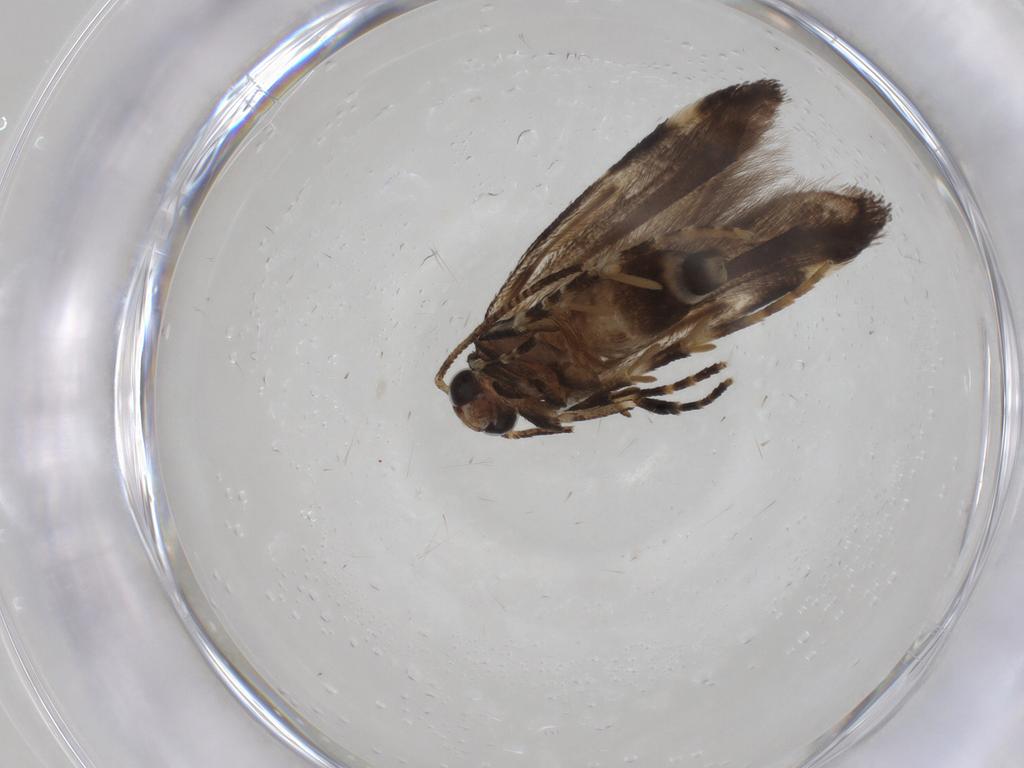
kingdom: Animalia
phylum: Arthropoda
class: Insecta
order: Lepidoptera
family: Gelechiidae
